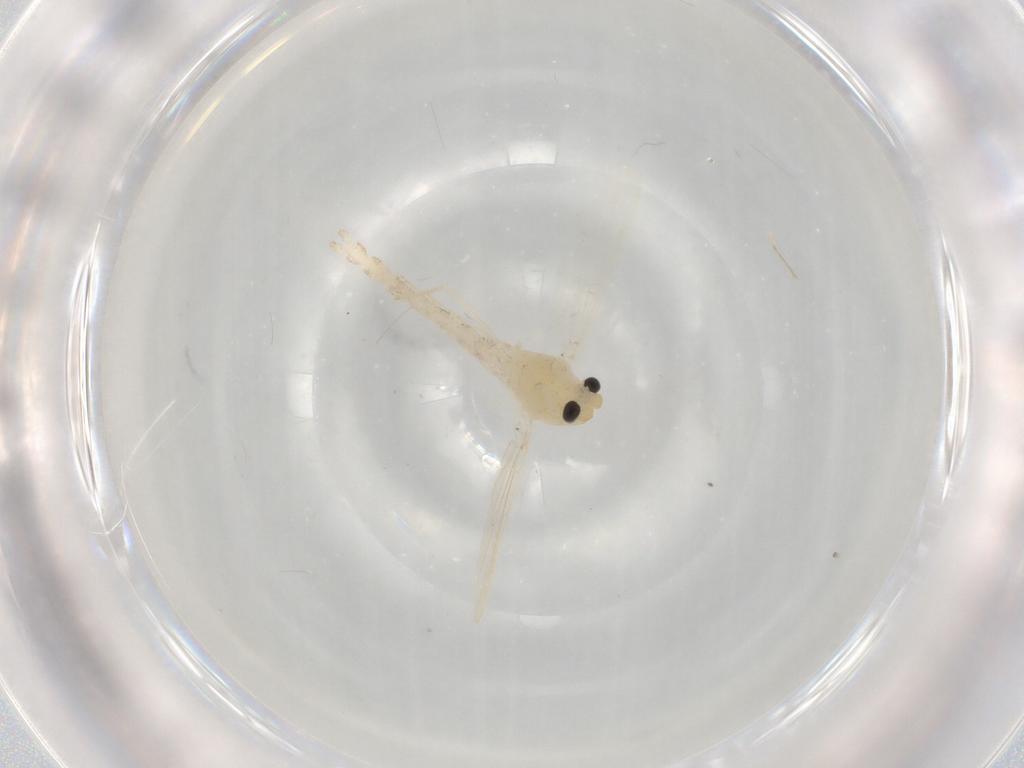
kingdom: Animalia
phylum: Arthropoda
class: Insecta
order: Diptera
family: Chironomidae
